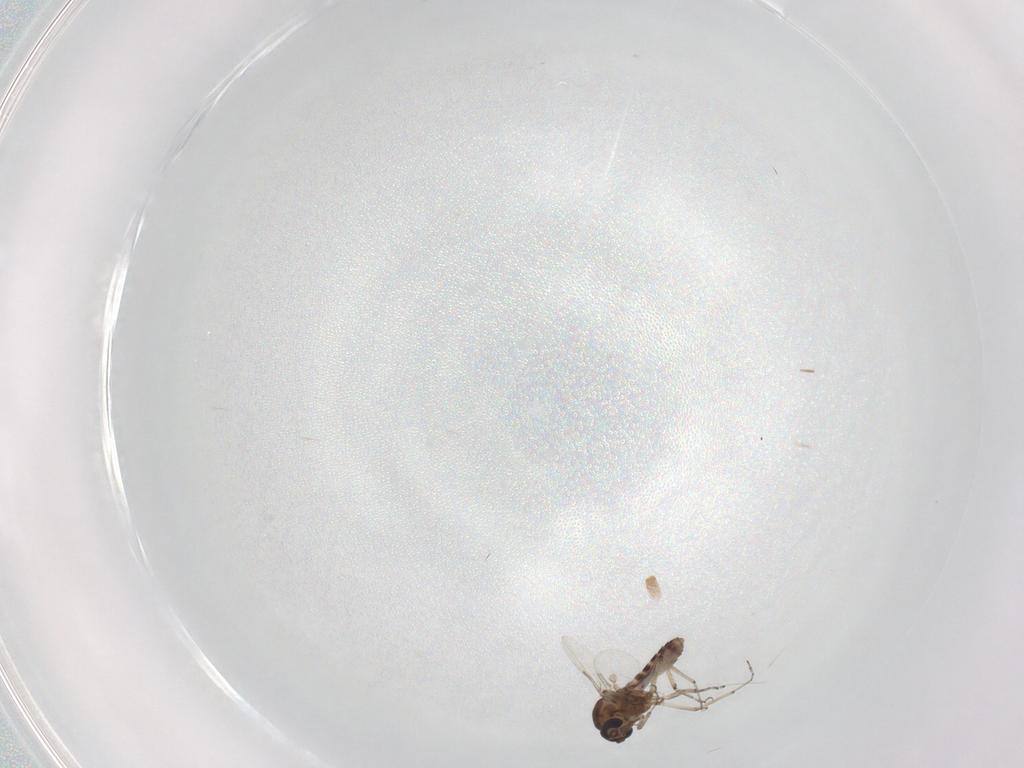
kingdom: Animalia
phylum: Arthropoda
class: Insecta
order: Diptera
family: Ceratopogonidae
